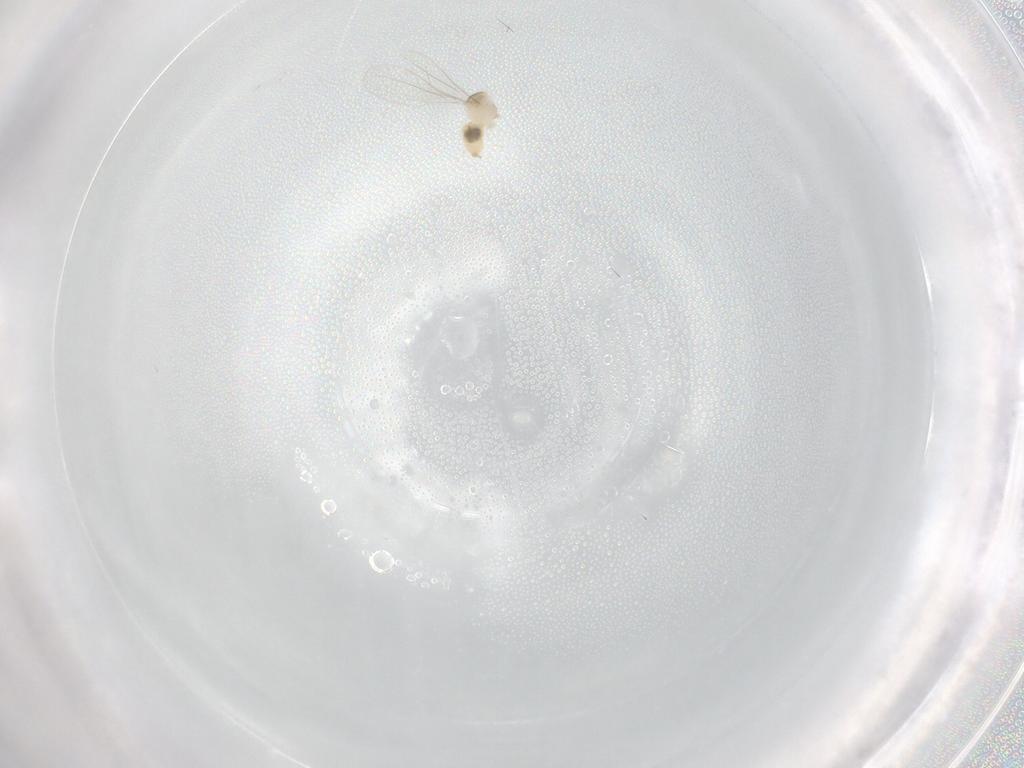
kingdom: Animalia
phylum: Arthropoda
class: Insecta
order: Diptera
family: Cecidomyiidae
